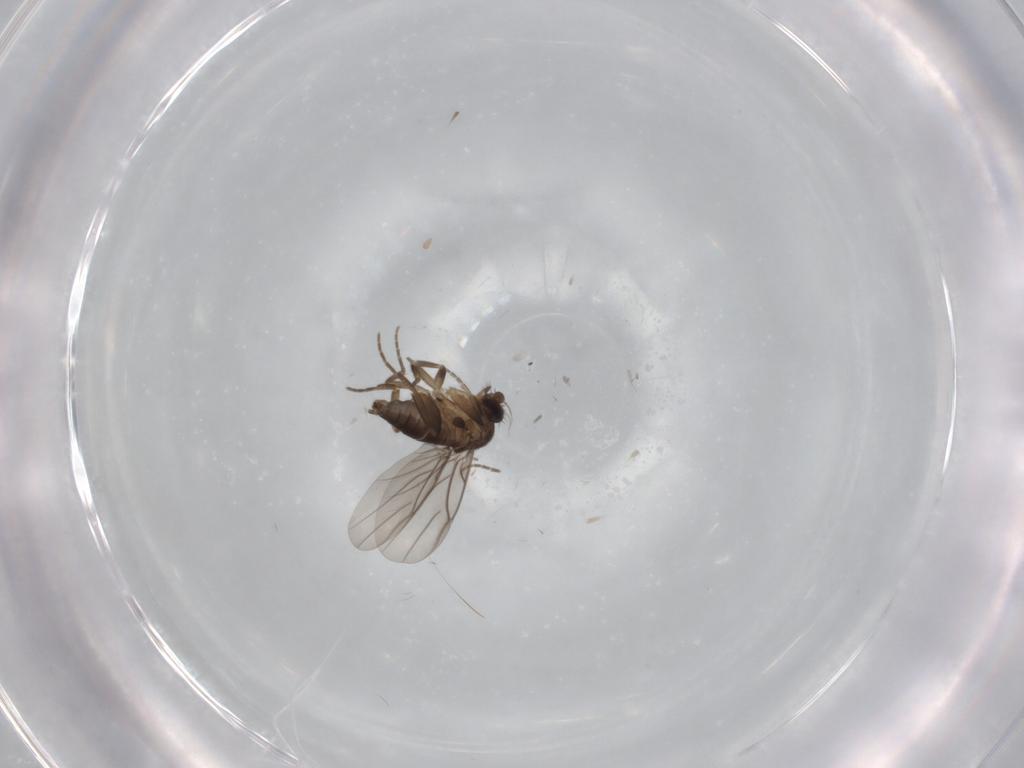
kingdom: Animalia
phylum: Arthropoda
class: Insecta
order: Diptera
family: Phoridae
